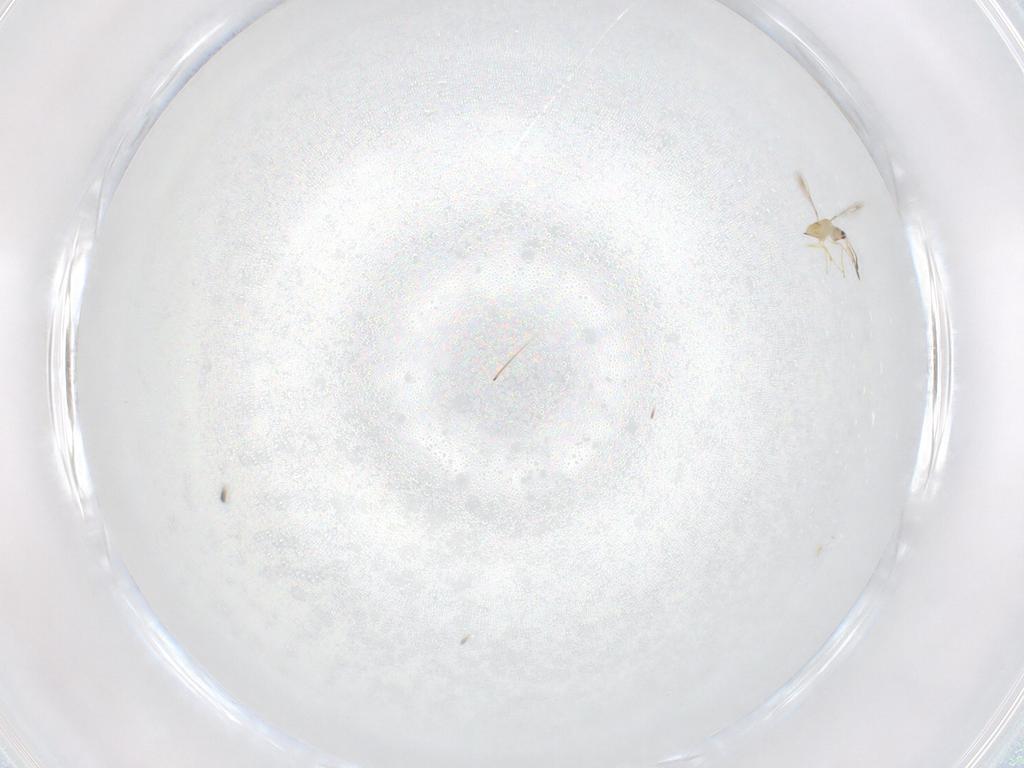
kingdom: Animalia
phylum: Arthropoda
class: Insecta
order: Hymenoptera
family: Mymaridae
